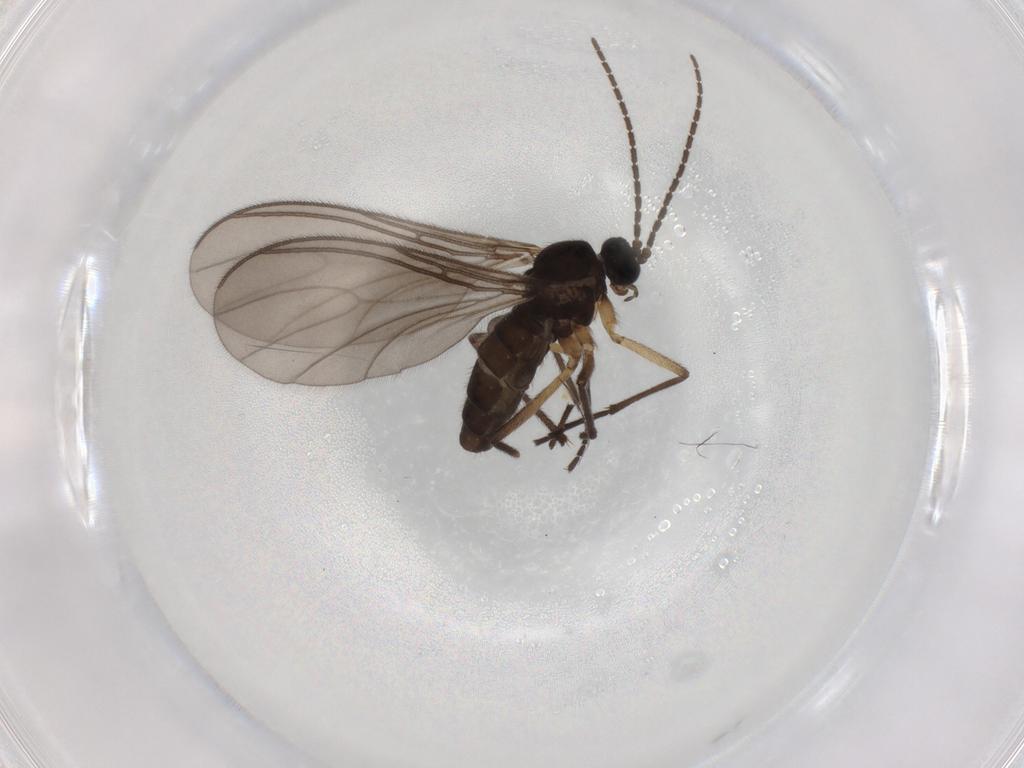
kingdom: Animalia
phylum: Arthropoda
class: Insecta
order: Diptera
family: Sciaridae
